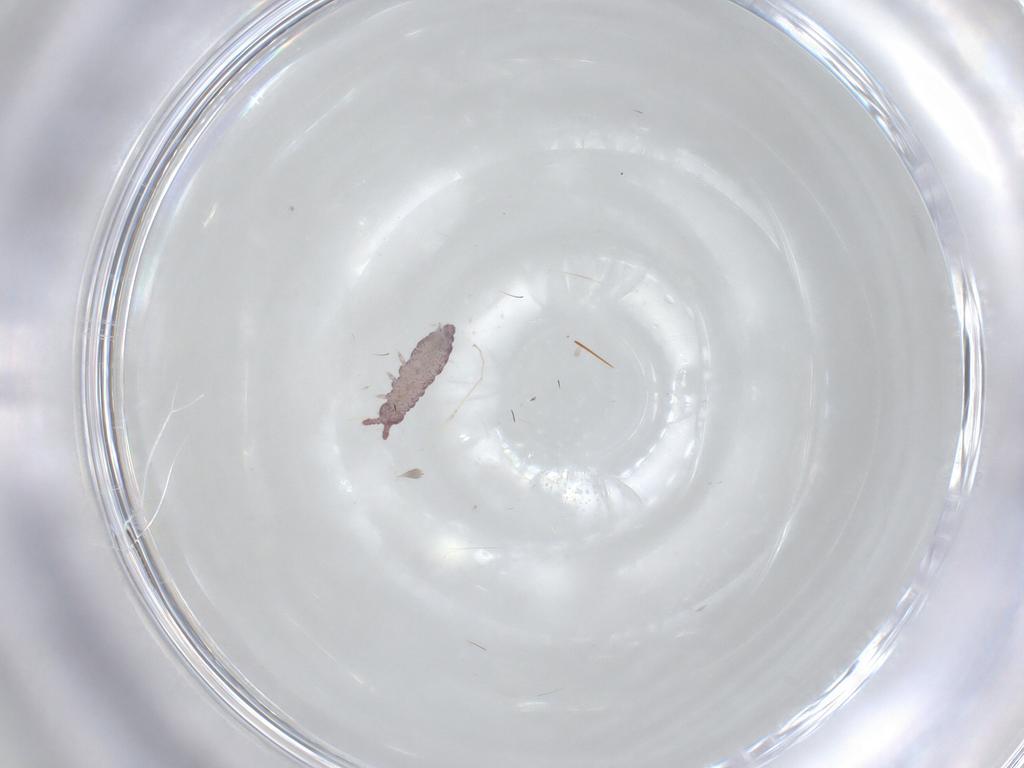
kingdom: Animalia
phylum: Arthropoda
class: Collembola
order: Poduromorpha
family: Hypogastruridae
